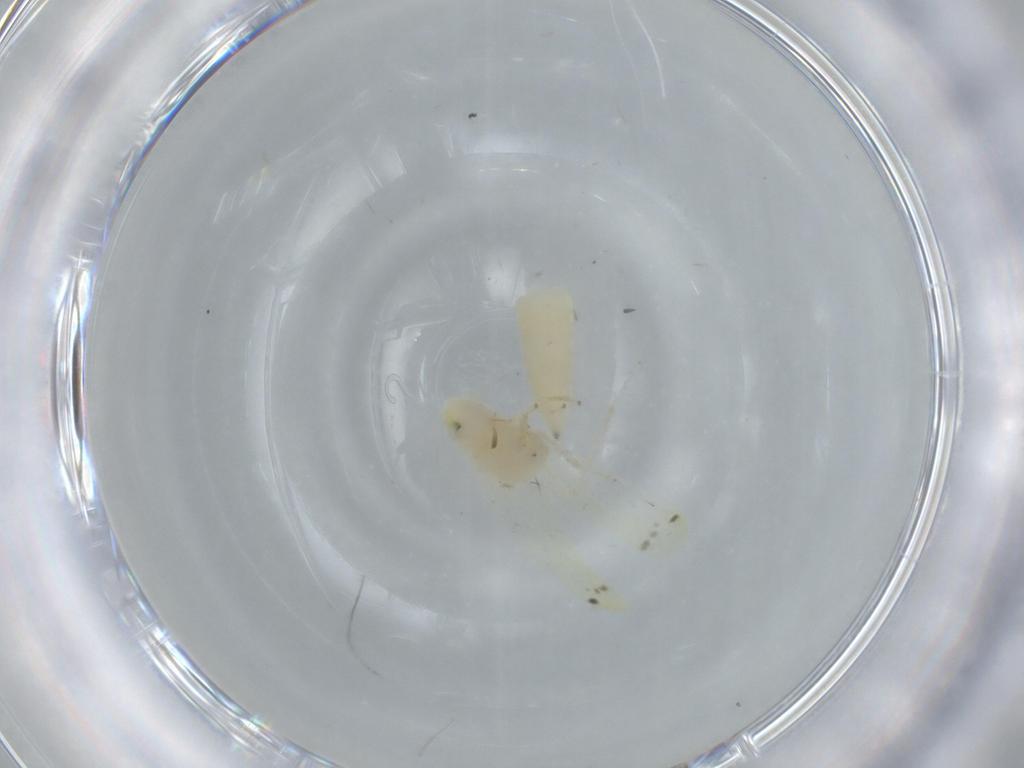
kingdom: Animalia
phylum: Arthropoda
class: Insecta
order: Hemiptera
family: Cicadellidae
